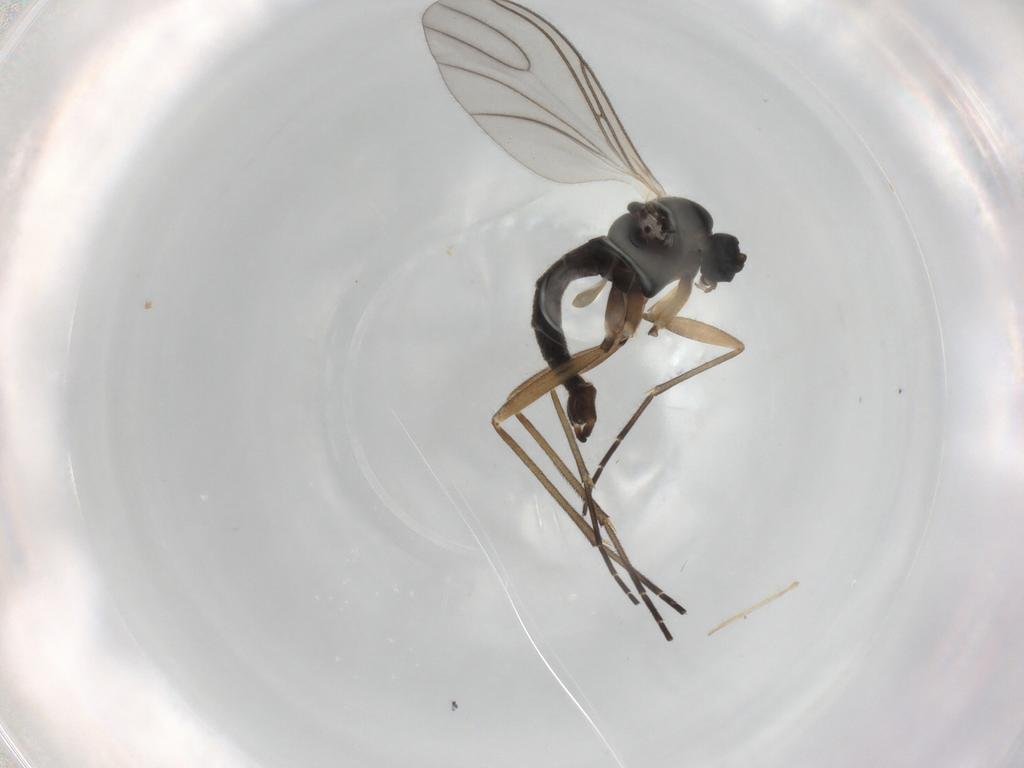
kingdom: Animalia
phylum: Arthropoda
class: Insecta
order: Diptera
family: Sciaridae
